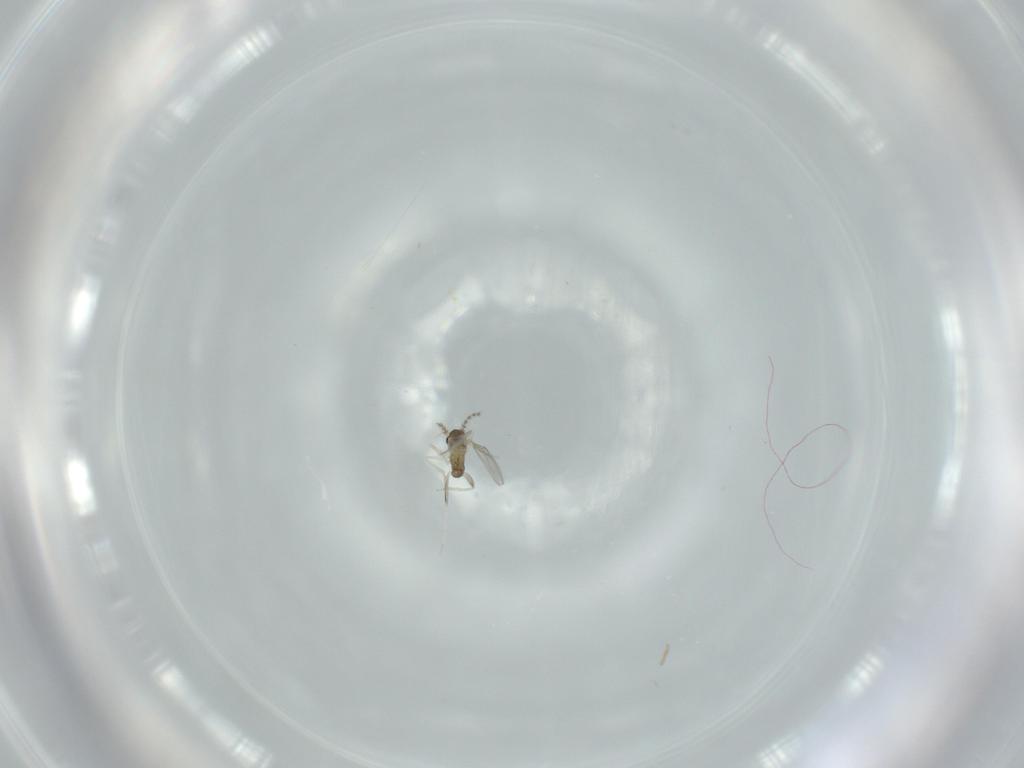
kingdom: Animalia
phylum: Arthropoda
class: Insecta
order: Diptera
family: Cecidomyiidae
